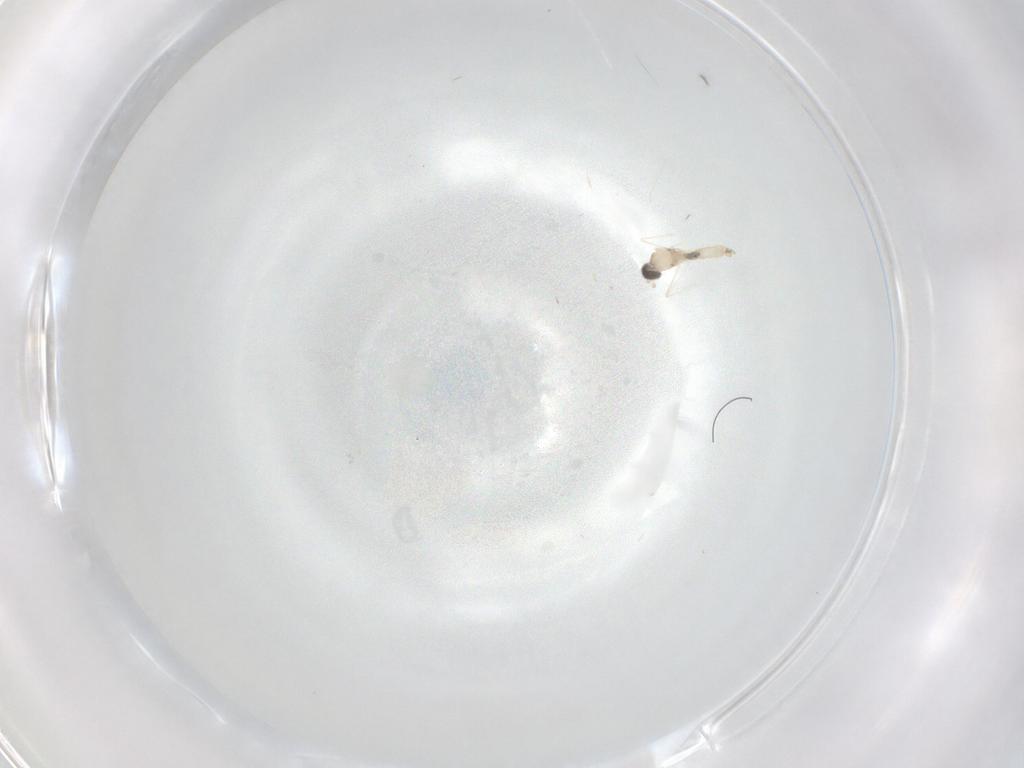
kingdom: Animalia
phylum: Arthropoda
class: Insecta
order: Diptera
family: Cecidomyiidae
